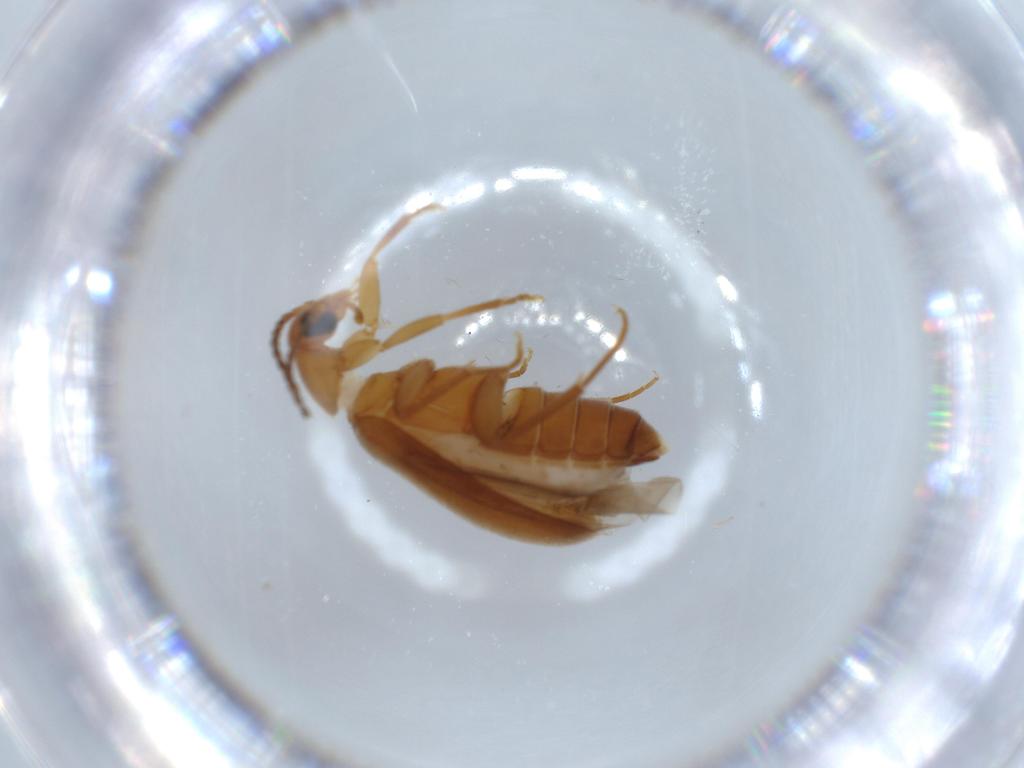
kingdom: Animalia
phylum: Arthropoda
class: Insecta
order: Coleoptera
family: Scraptiidae
